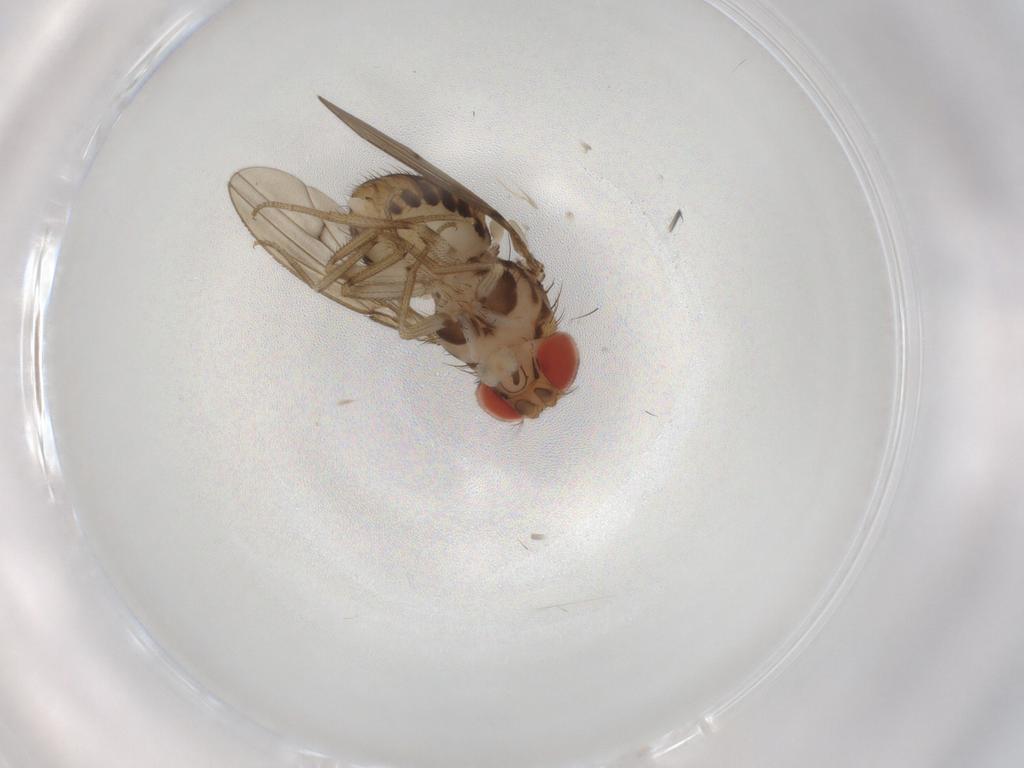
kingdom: Animalia
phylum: Arthropoda
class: Insecta
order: Diptera
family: Drosophilidae
